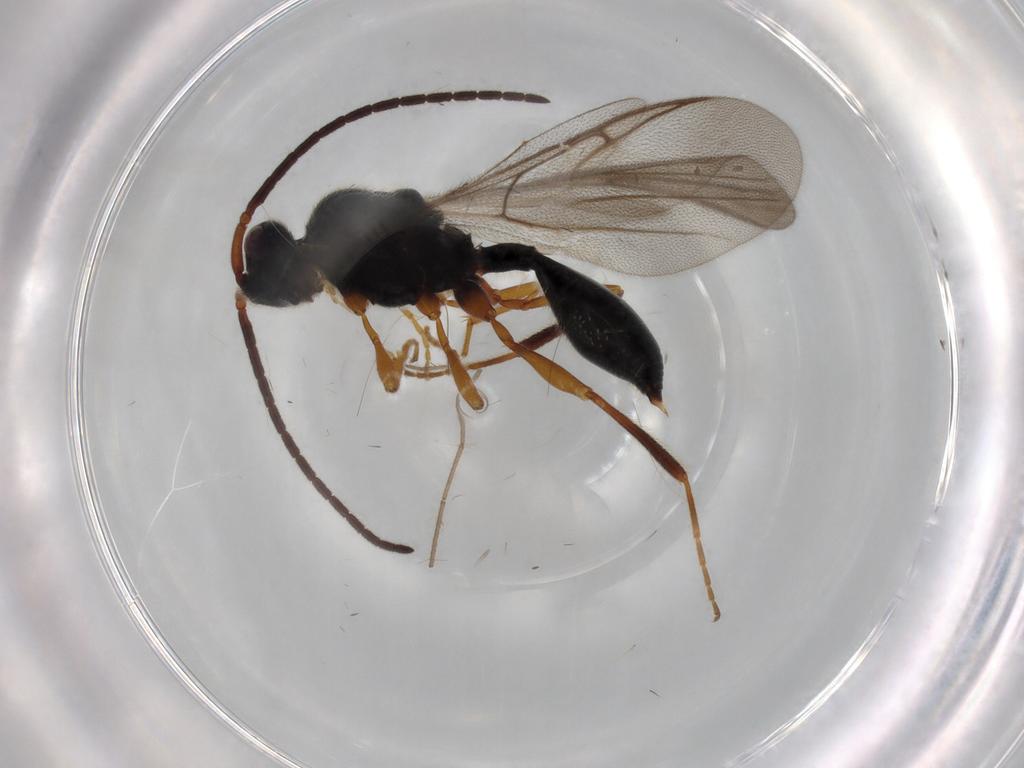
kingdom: Animalia
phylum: Arthropoda
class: Insecta
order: Hymenoptera
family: Diapriidae
